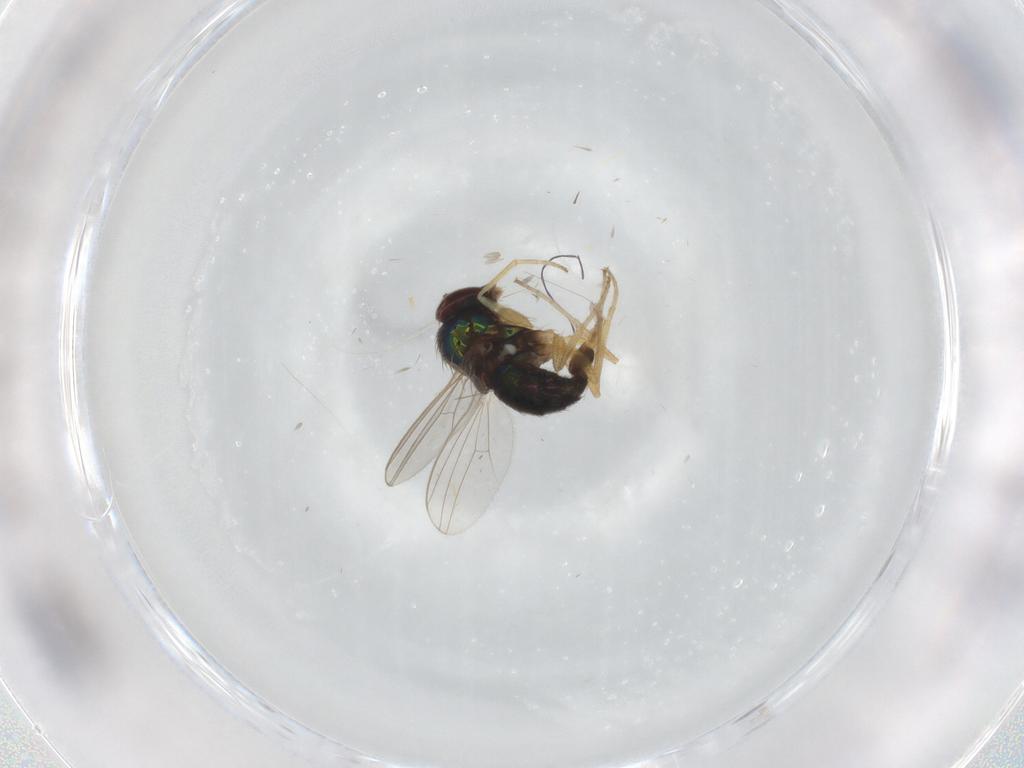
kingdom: Animalia
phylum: Arthropoda
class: Insecta
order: Diptera
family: Dolichopodidae
